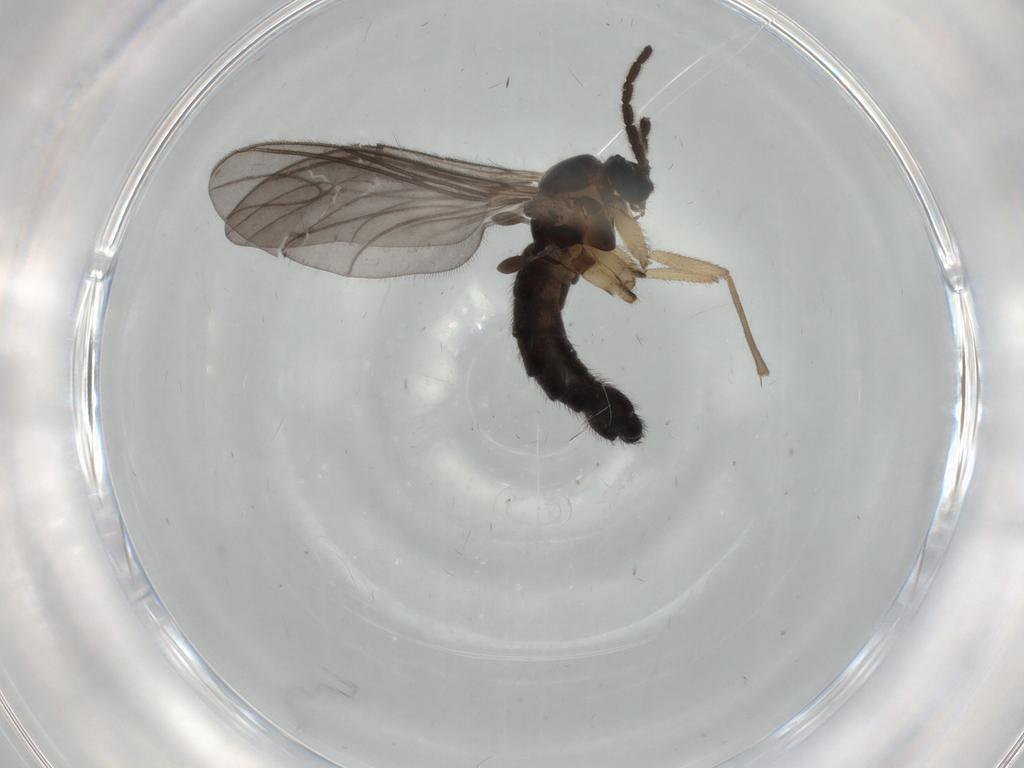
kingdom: Animalia
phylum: Arthropoda
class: Insecta
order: Diptera
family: Sciaridae
